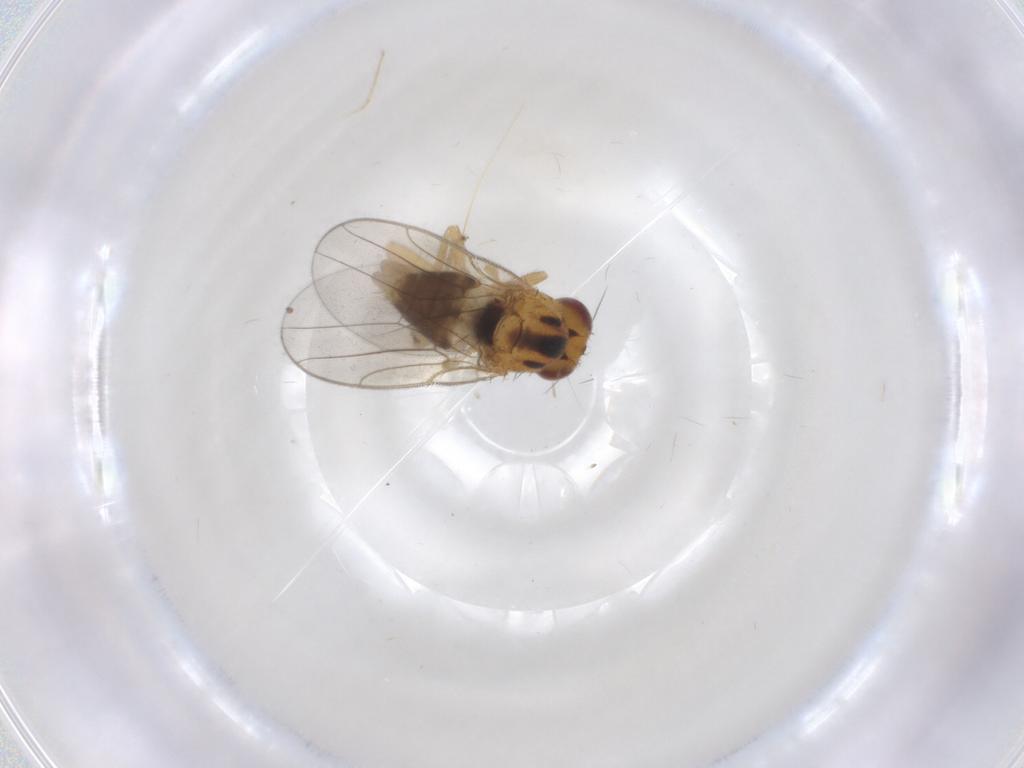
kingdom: Animalia
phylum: Arthropoda
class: Insecta
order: Diptera
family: Chloropidae
